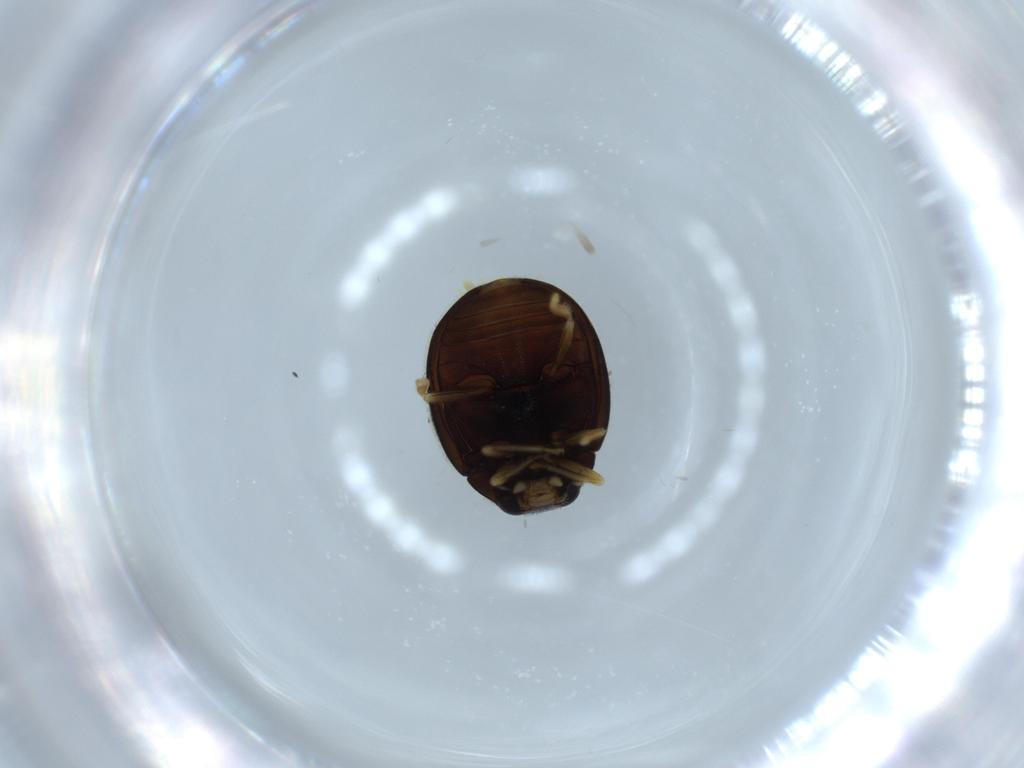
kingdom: Animalia
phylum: Arthropoda
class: Insecta
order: Coleoptera
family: Coccinellidae
